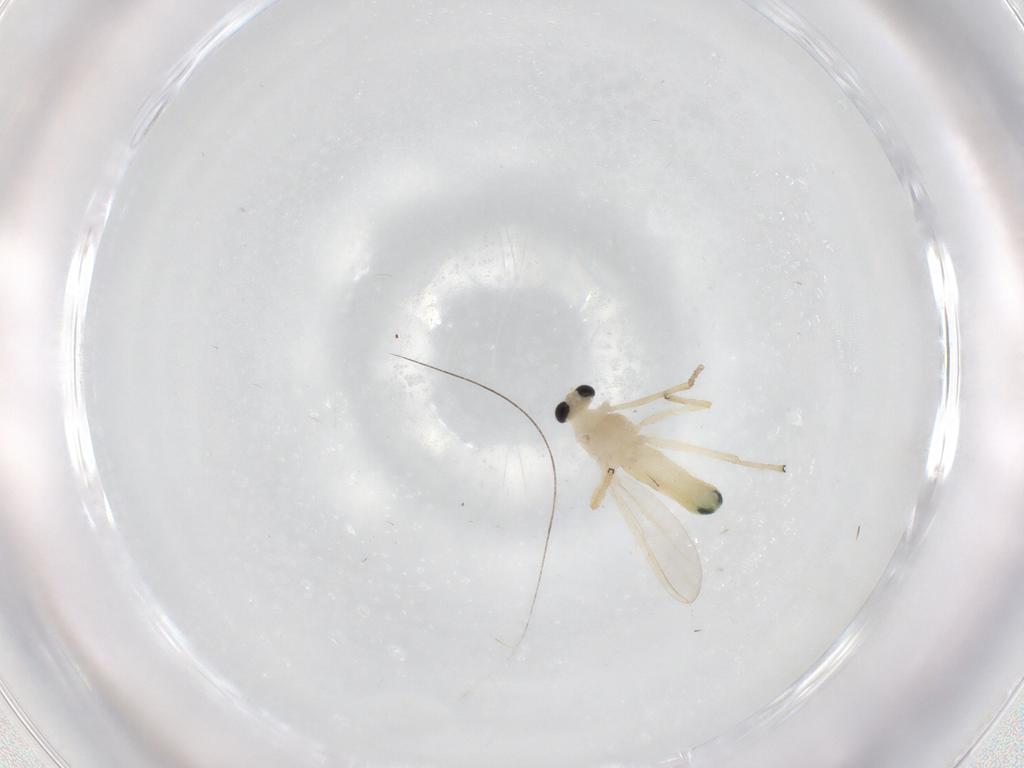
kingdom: Animalia
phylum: Arthropoda
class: Insecta
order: Diptera
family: Chironomidae
